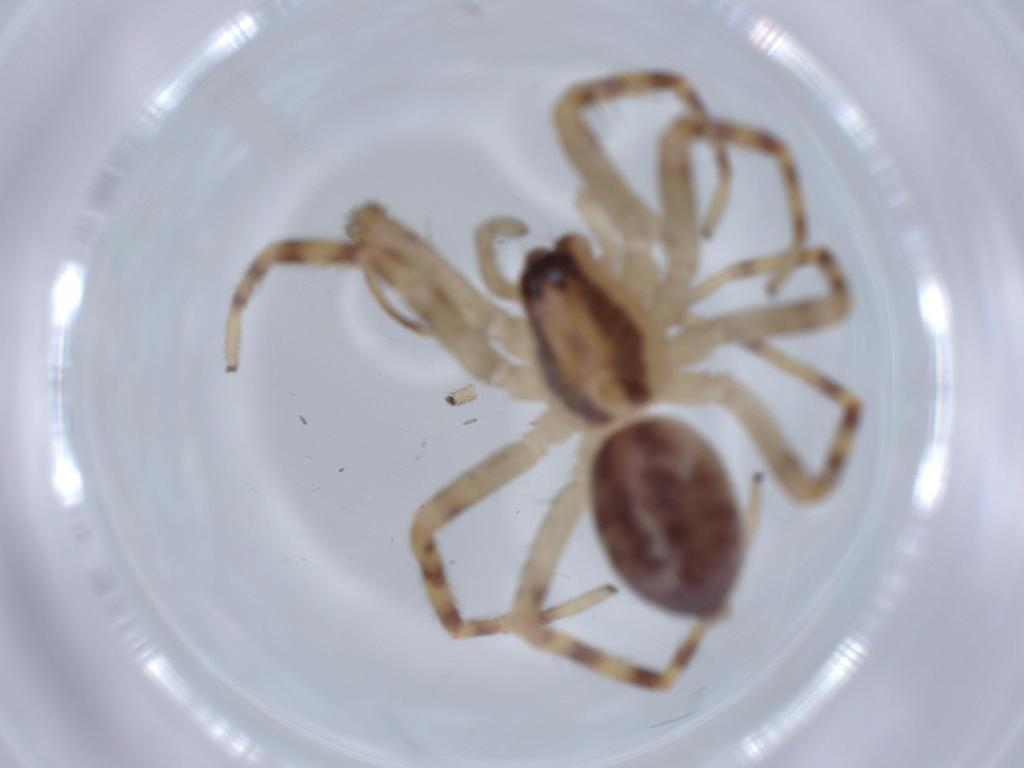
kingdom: Animalia
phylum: Arthropoda
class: Arachnida
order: Araneae
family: Corinnidae
